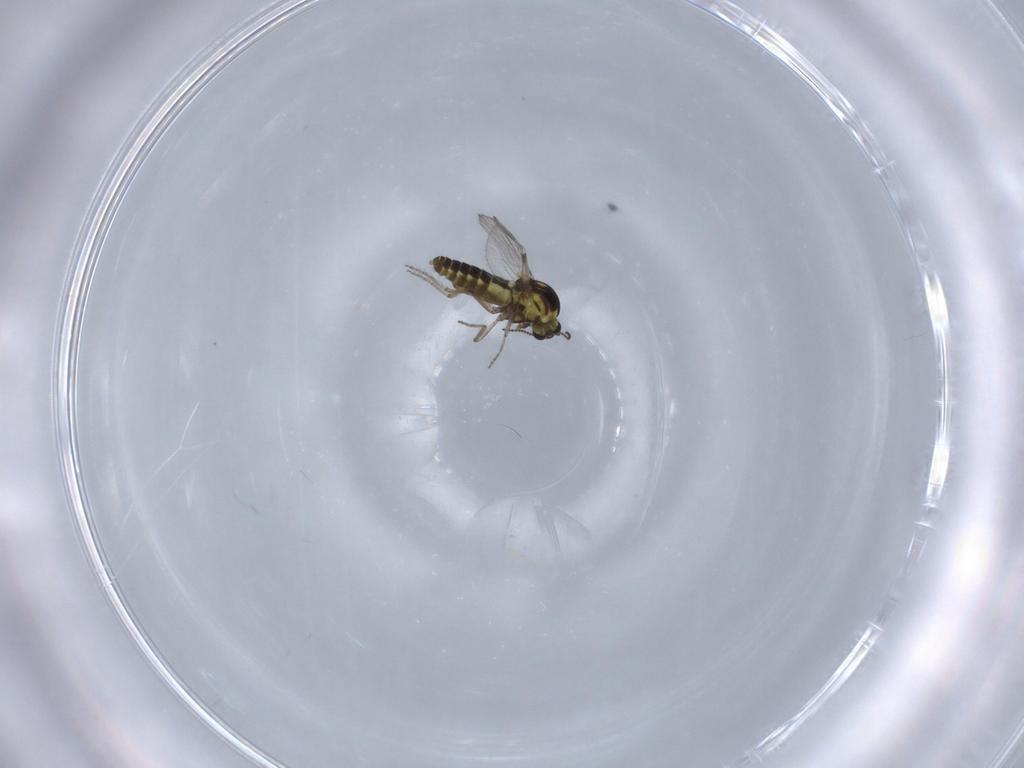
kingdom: Animalia
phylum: Arthropoda
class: Insecta
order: Diptera
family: Ceratopogonidae
